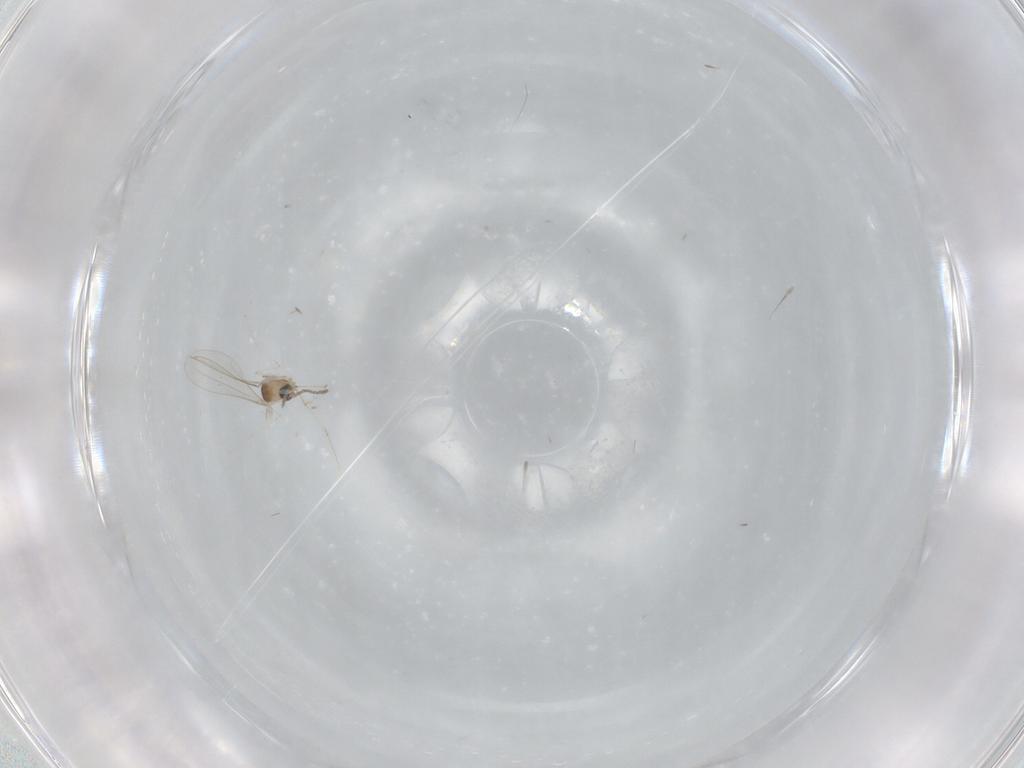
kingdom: Animalia
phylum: Arthropoda
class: Insecta
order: Diptera
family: Cecidomyiidae
